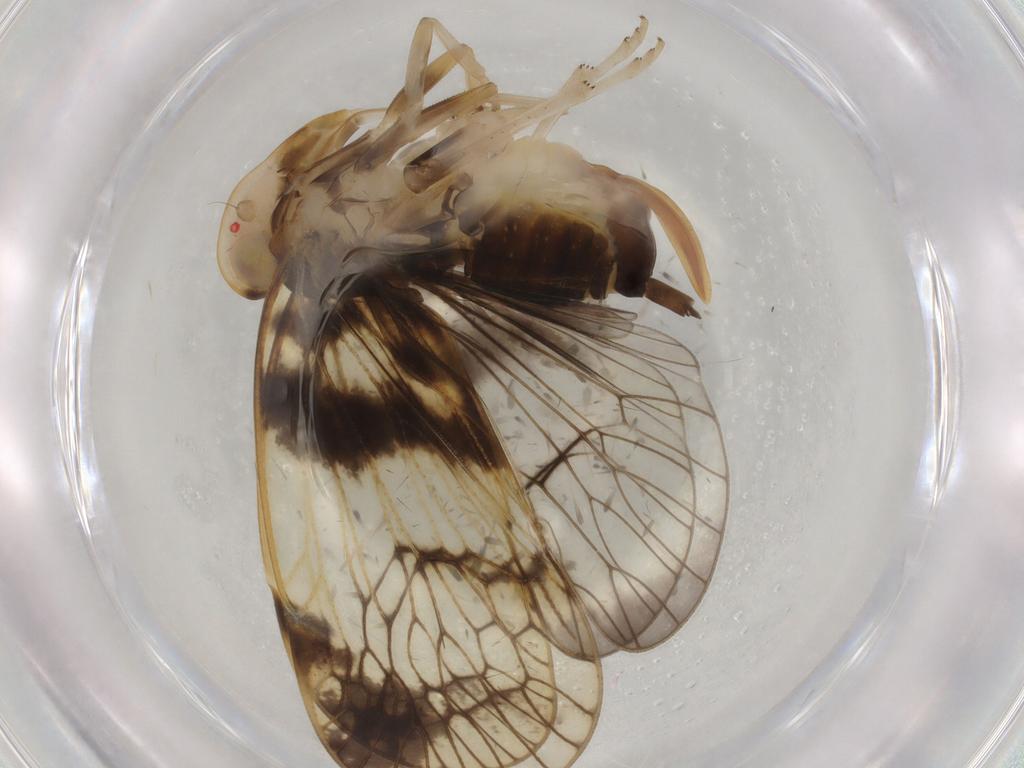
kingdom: Animalia
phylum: Arthropoda
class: Insecta
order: Hemiptera
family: Cixiidae
